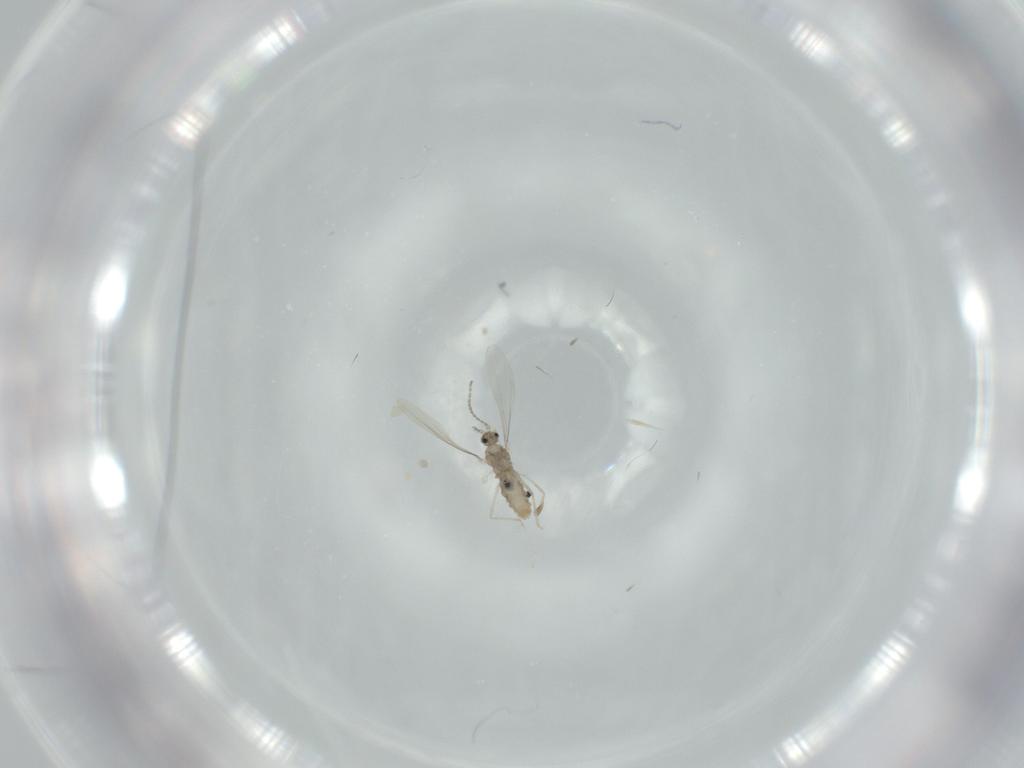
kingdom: Animalia
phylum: Arthropoda
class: Insecta
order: Diptera
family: Cecidomyiidae
